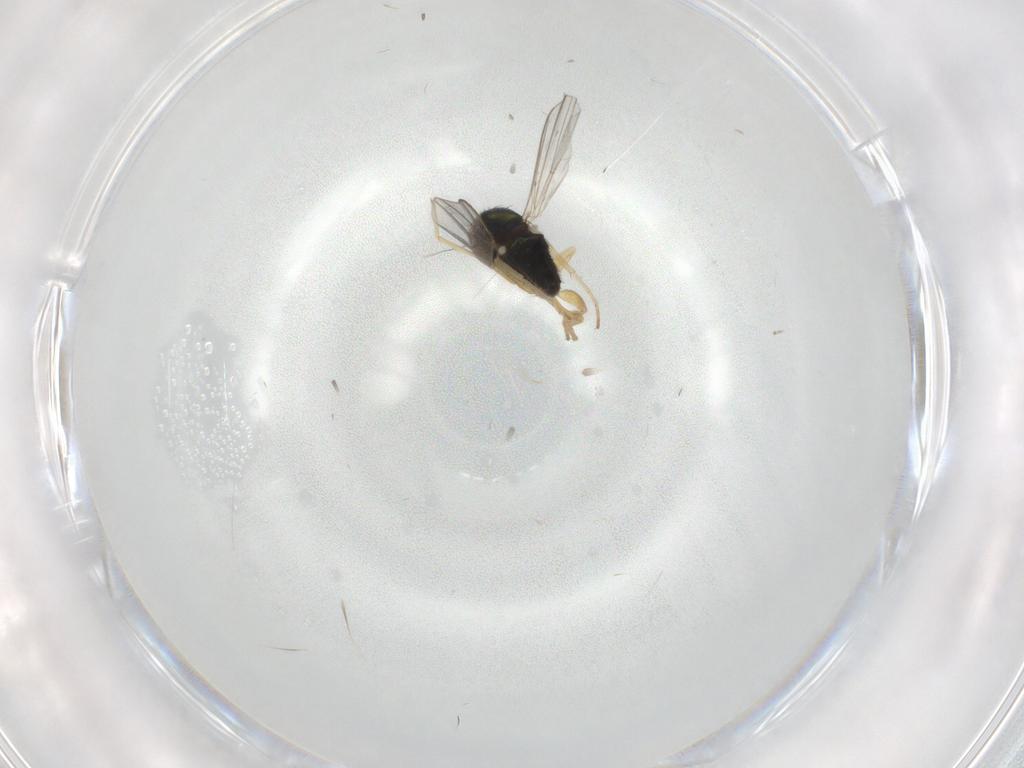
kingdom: Animalia
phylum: Arthropoda
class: Insecta
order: Diptera
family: Dolichopodidae
